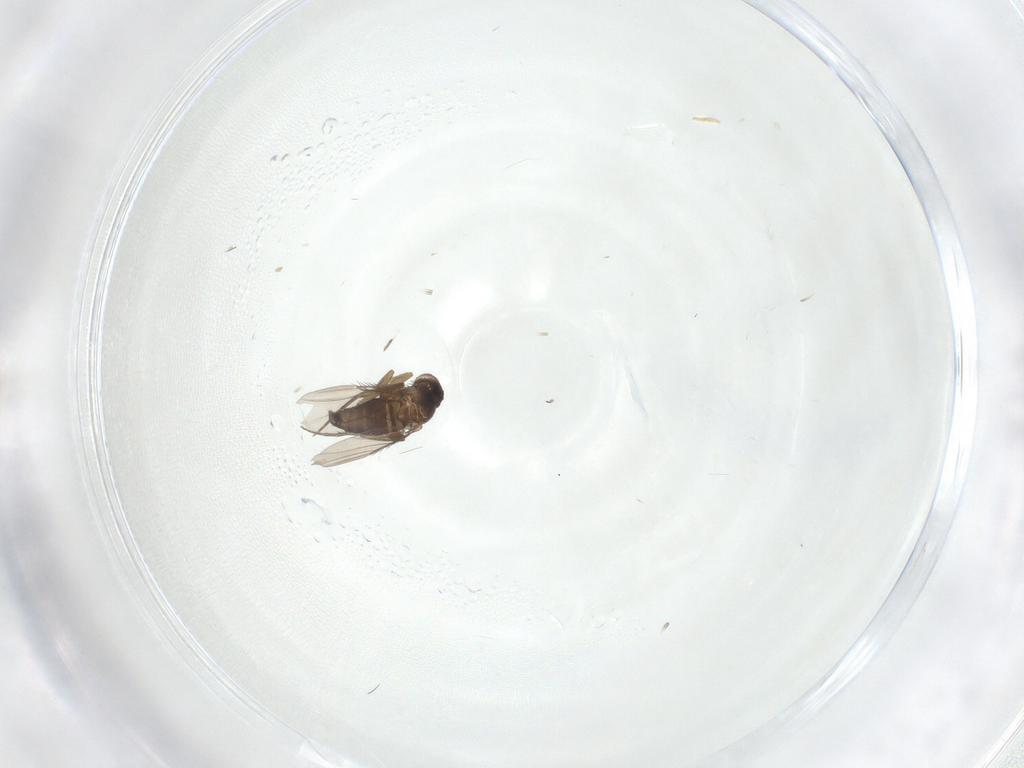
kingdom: Animalia
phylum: Arthropoda
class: Insecta
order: Diptera
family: Phoridae
